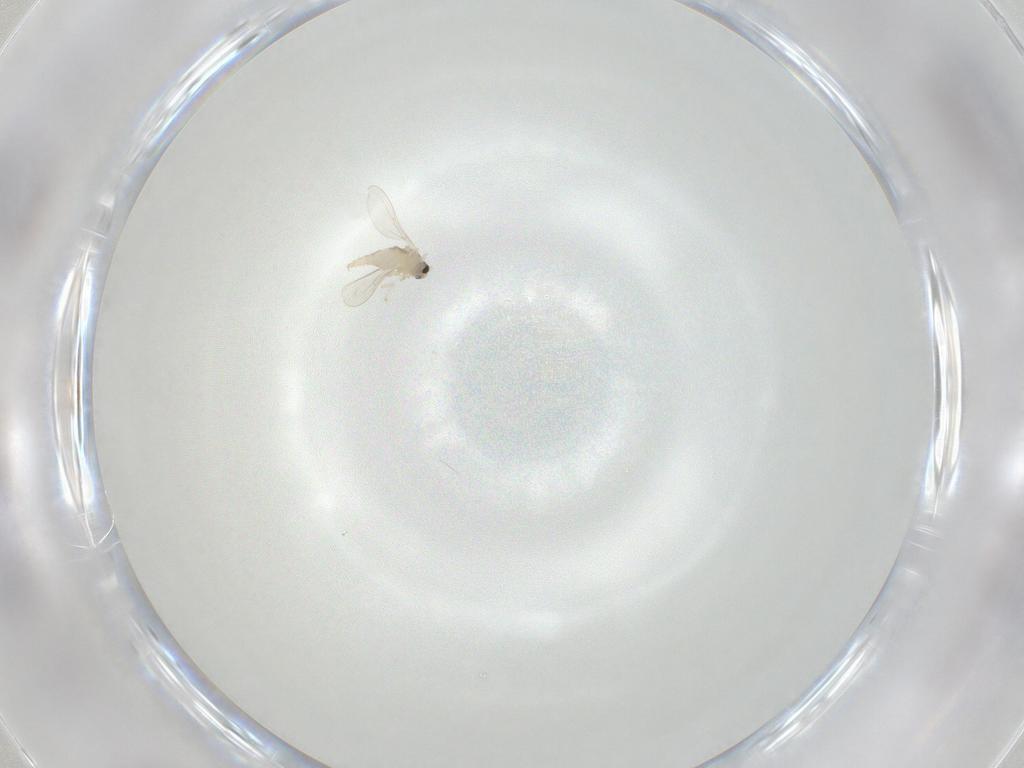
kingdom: Animalia
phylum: Arthropoda
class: Insecta
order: Diptera
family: Cecidomyiidae
